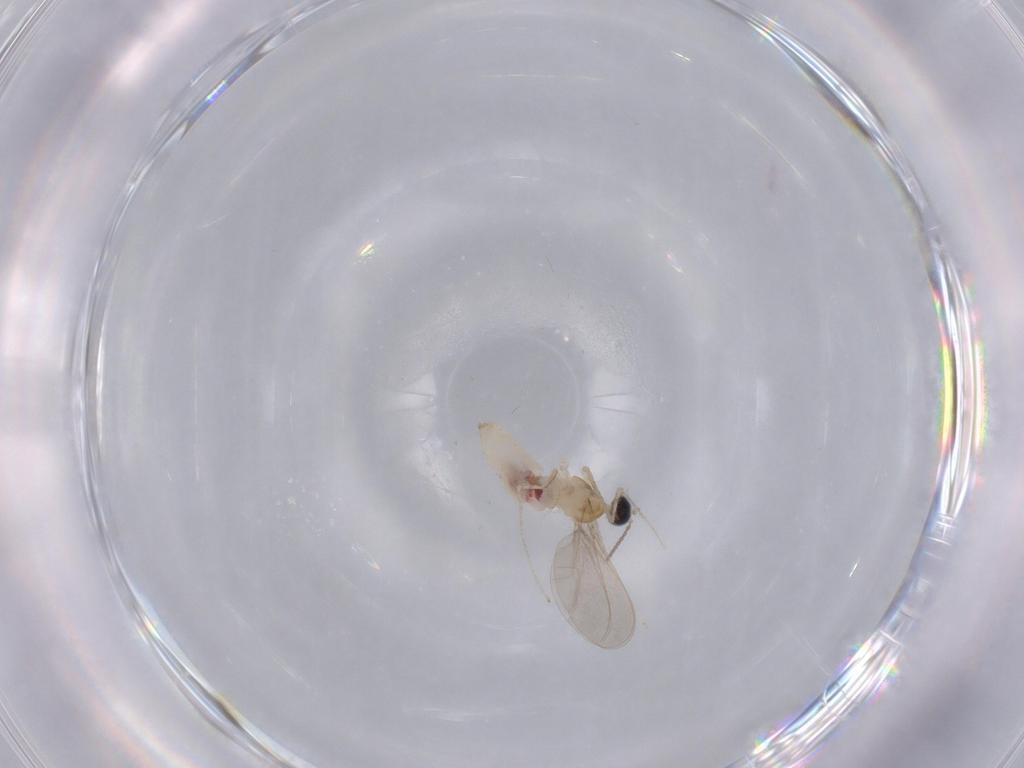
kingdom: Animalia
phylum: Arthropoda
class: Insecta
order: Diptera
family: Cecidomyiidae
